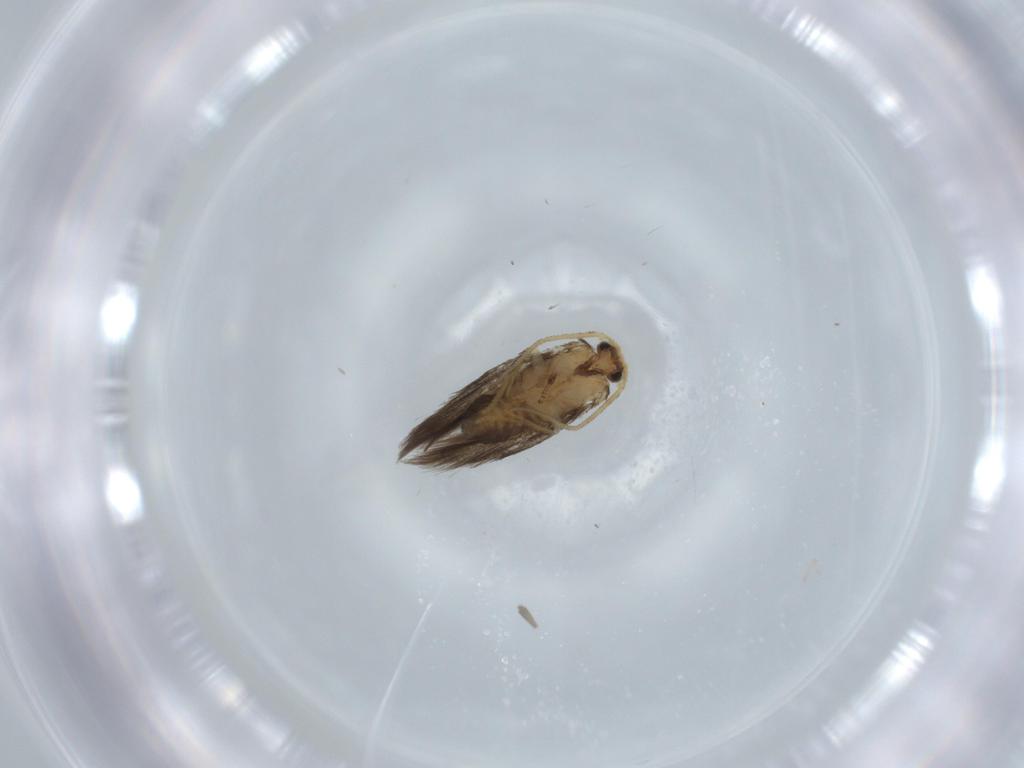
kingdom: Animalia
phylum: Arthropoda
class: Insecta
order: Lepidoptera
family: Nepticulidae
